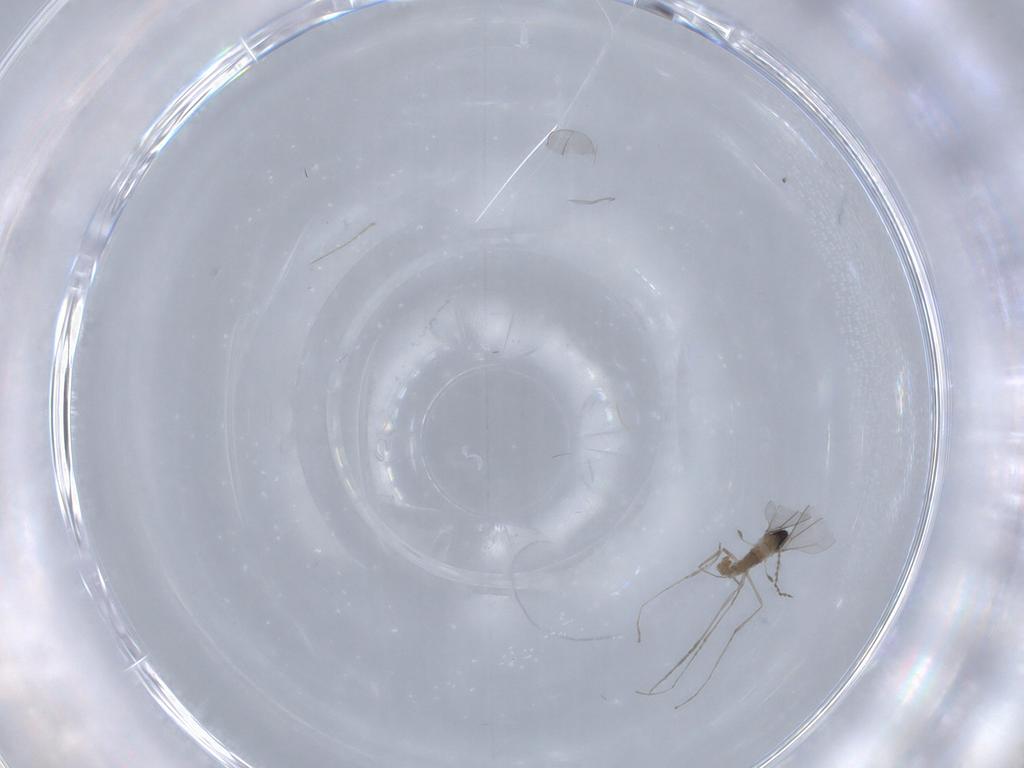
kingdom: Animalia
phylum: Arthropoda
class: Insecta
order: Diptera
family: Cecidomyiidae
